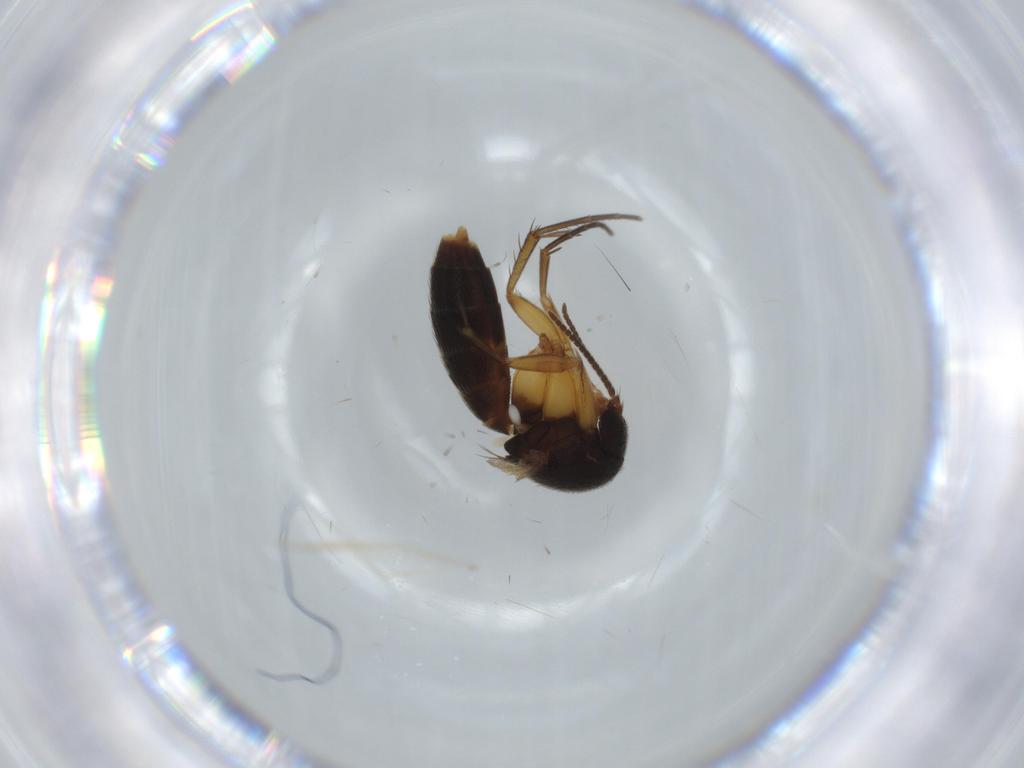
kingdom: Animalia
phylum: Arthropoda
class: Insecta
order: Diptera
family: Mycetophilidae
